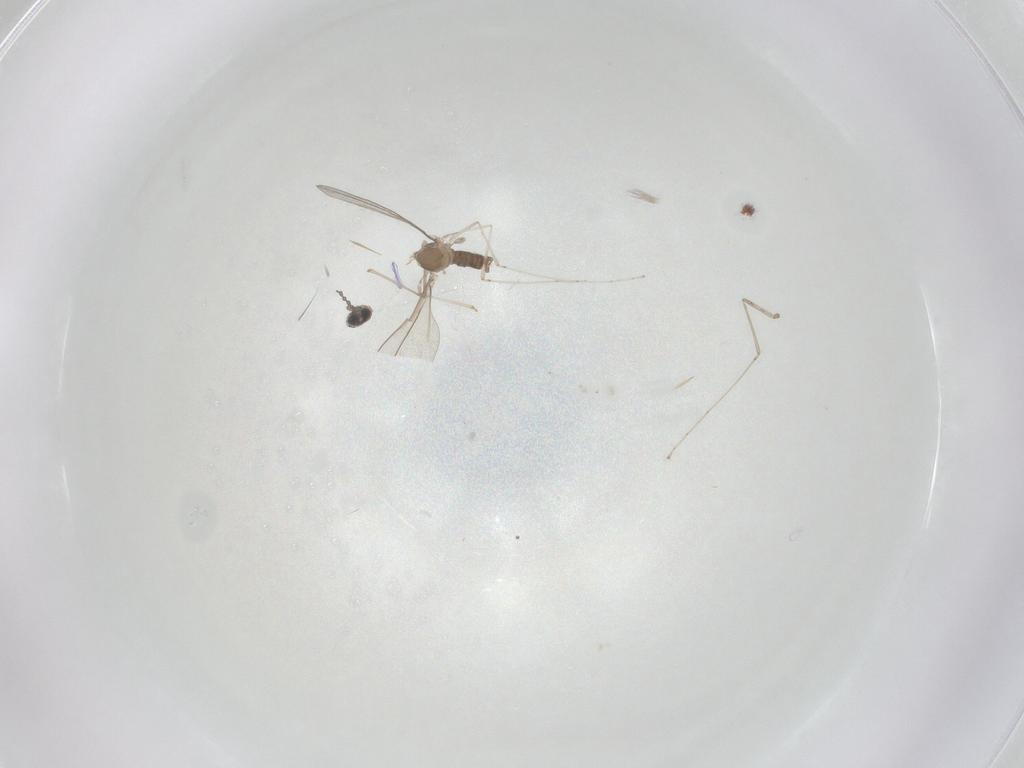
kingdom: Animalia
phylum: Arthropoda
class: Insecta
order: Diptera
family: Cecidomyiidae
